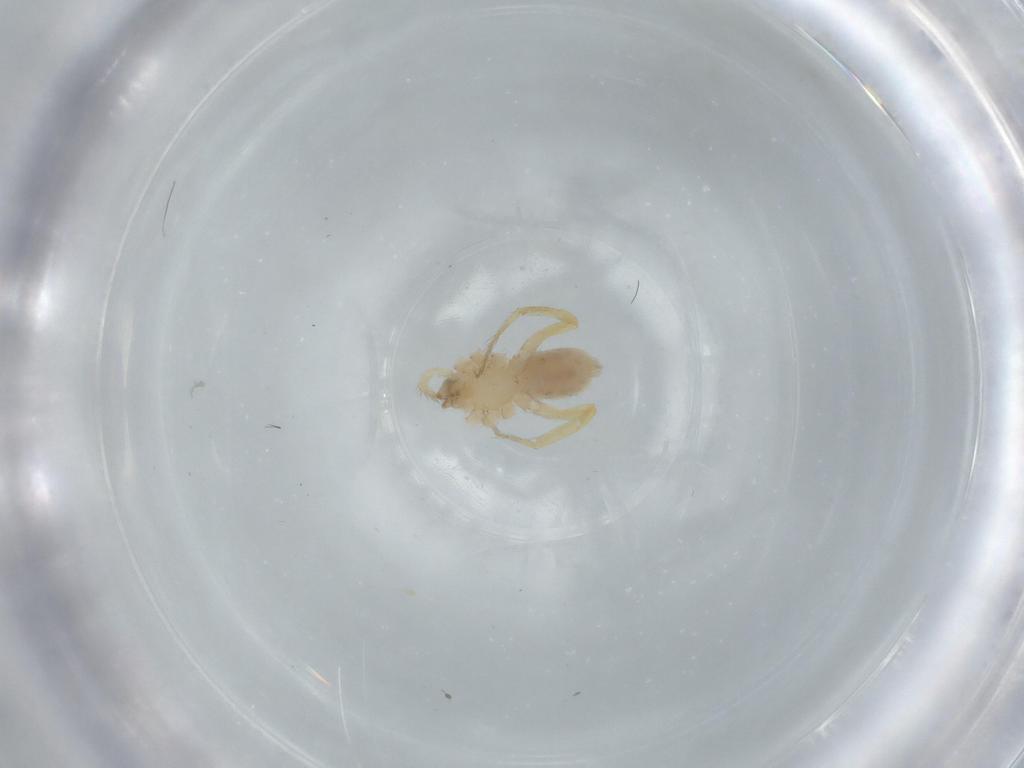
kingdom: Animalia
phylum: Arthropoda
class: Arachnida
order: Araneae
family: Oonopidae
